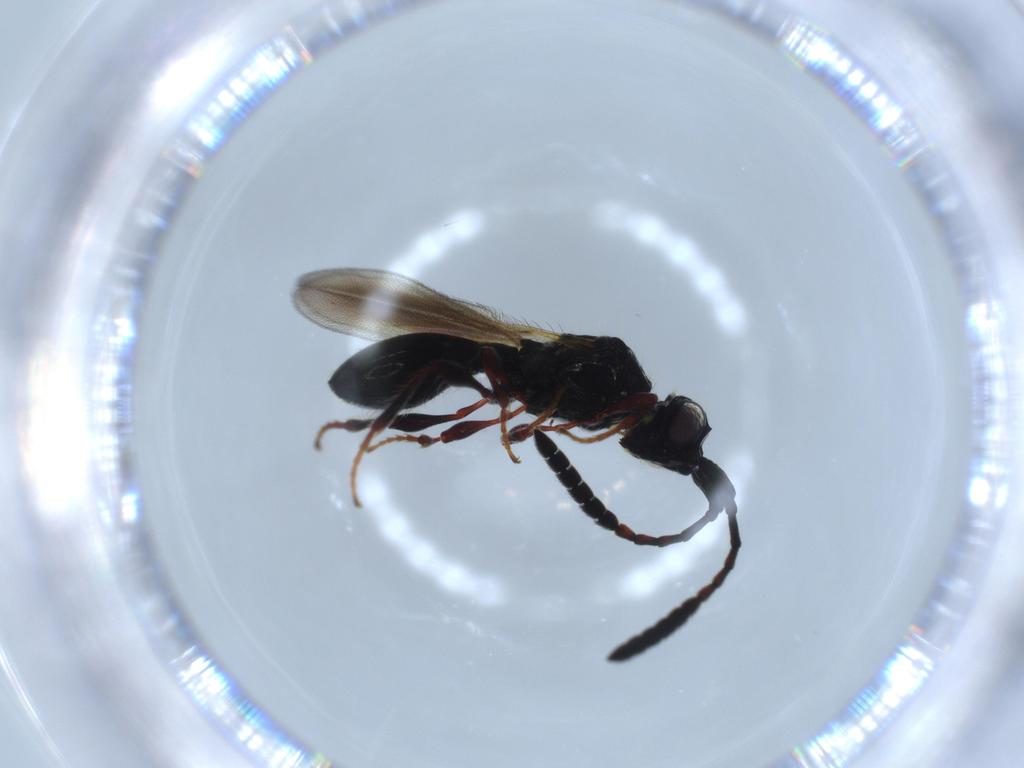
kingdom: Animalia
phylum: Arthropoda
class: Insecta
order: Hymenoptera
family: Diapriidae
